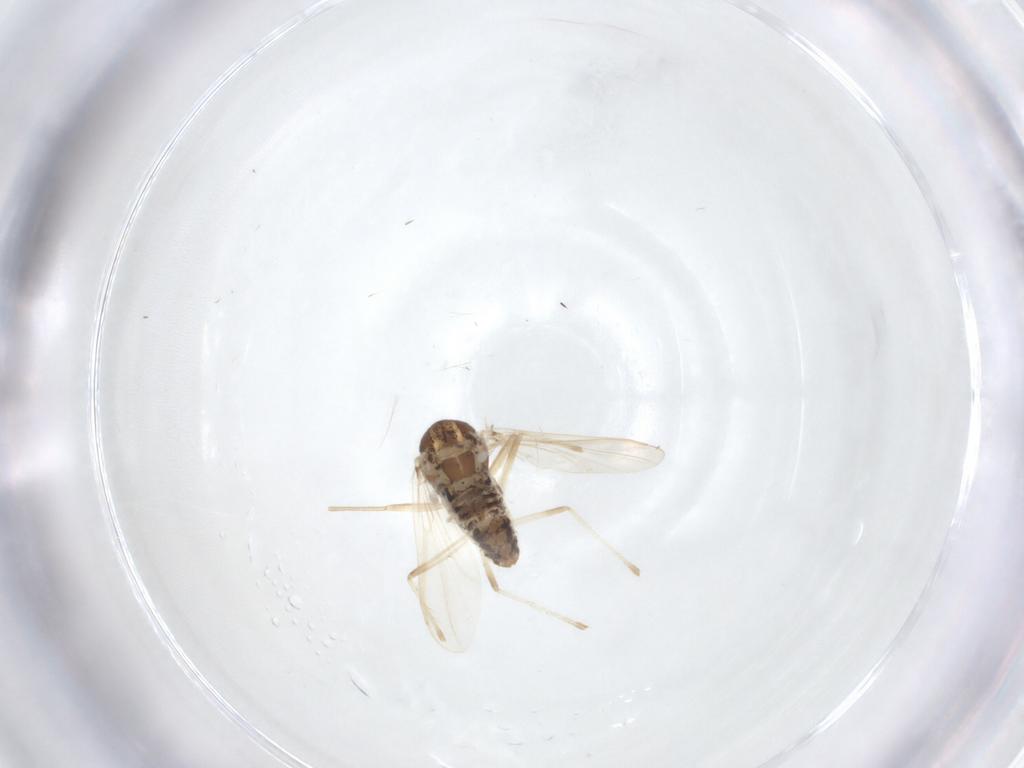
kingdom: Animalia
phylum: Arthropoda
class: Insecta
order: Diptera
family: Chironomidae
